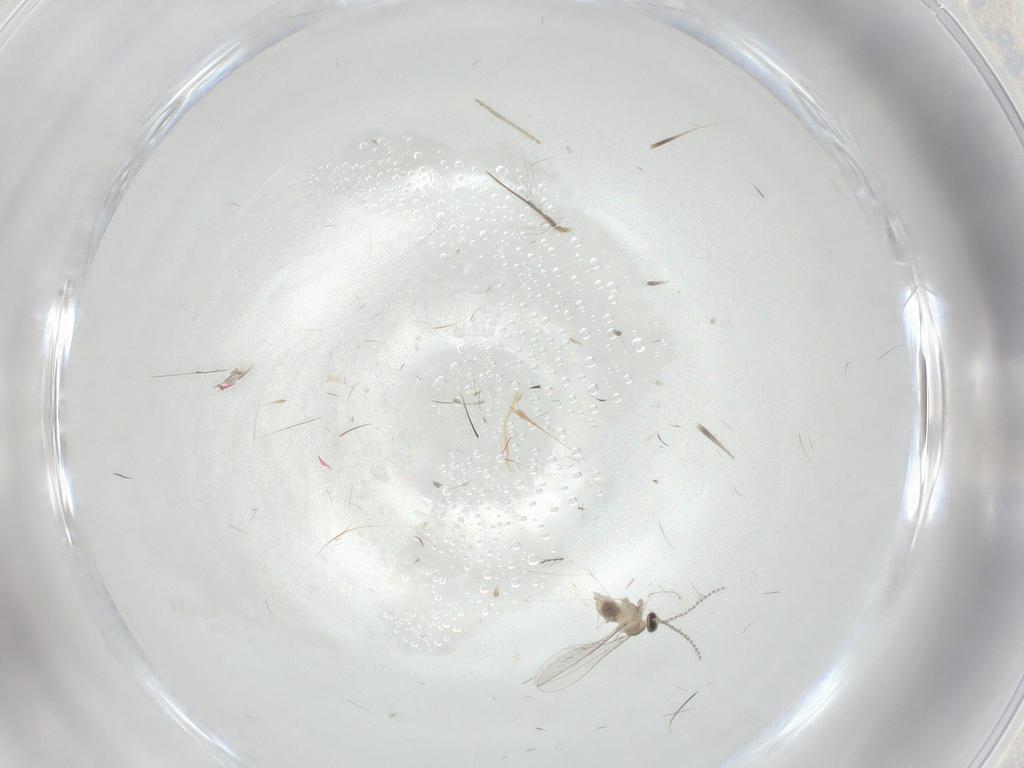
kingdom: Animalia
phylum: Arthropoda
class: Insecta
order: Diptera
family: Cecidomyiidae
